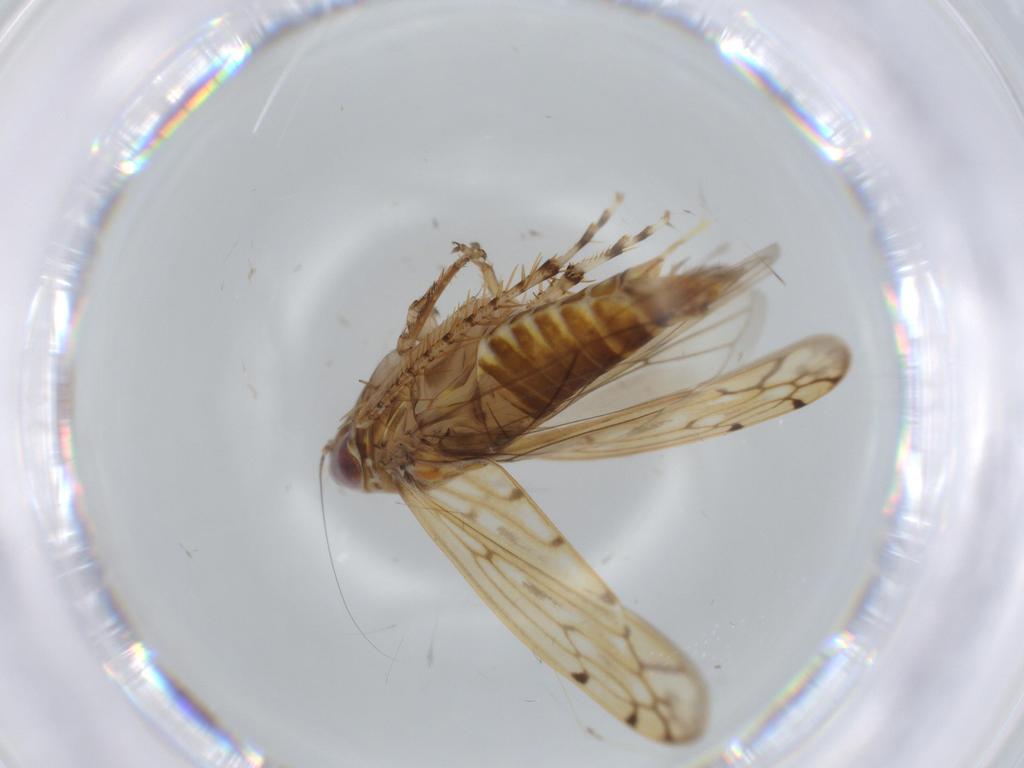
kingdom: Animalia
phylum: Arthropoda
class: Insecta
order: Hemiptera
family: Cicadellidae
